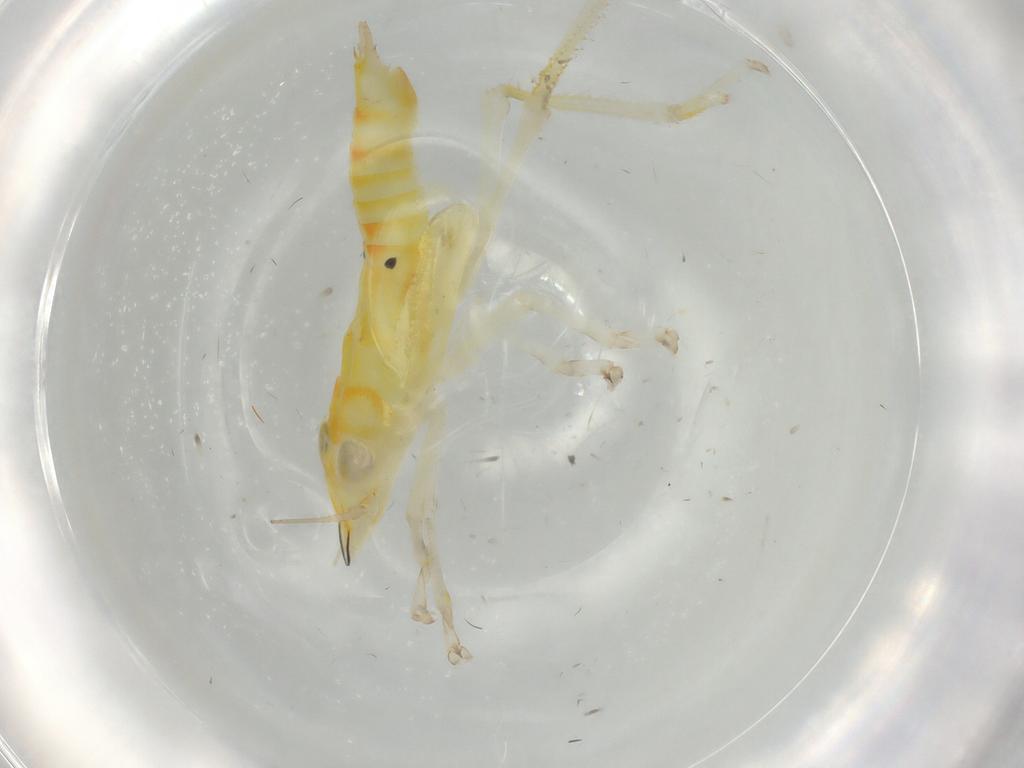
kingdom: Animalia
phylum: Arthropoda
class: Insecta
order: Hemiptera
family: Cicadellidae
